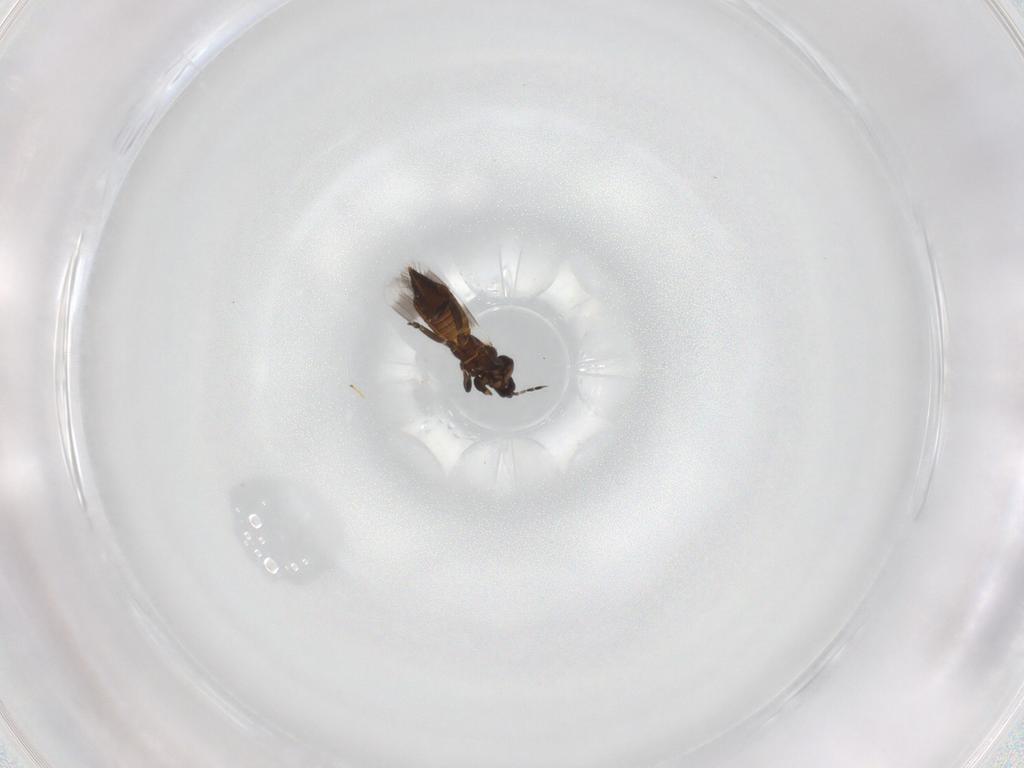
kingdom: Animalia
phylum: Arthropoda
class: Insecta
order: Thysanoptera
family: Aeolothripidae
